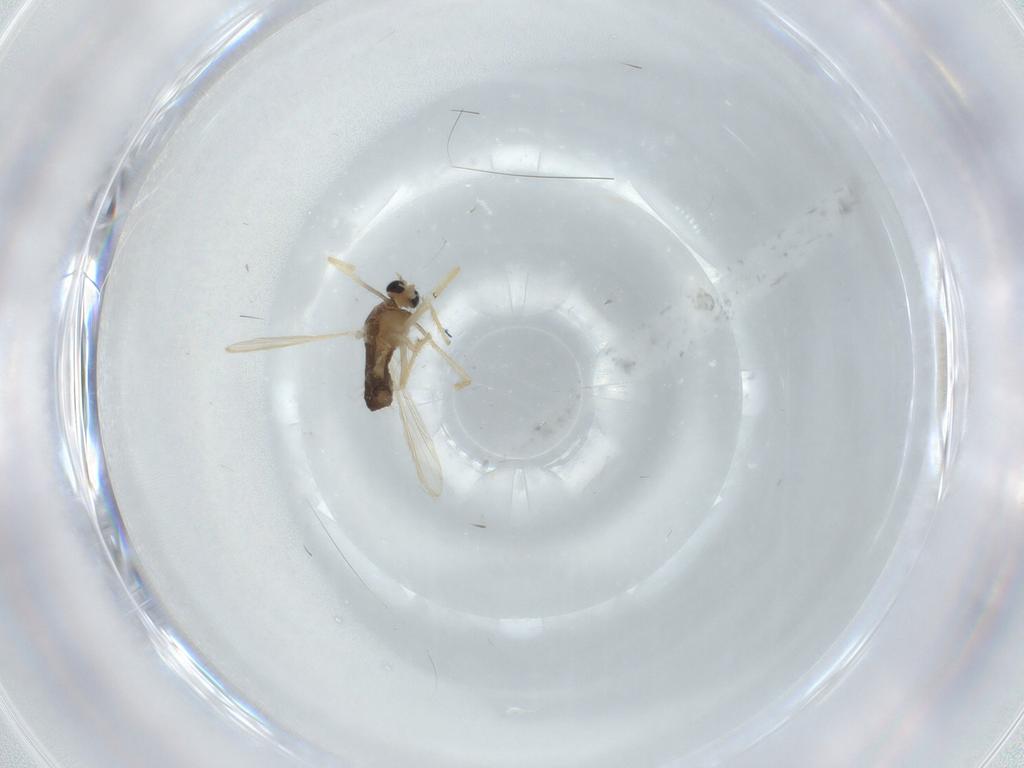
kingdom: Animalia
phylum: Arthropoda
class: Insecta
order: Diptera
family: Chironomidae
